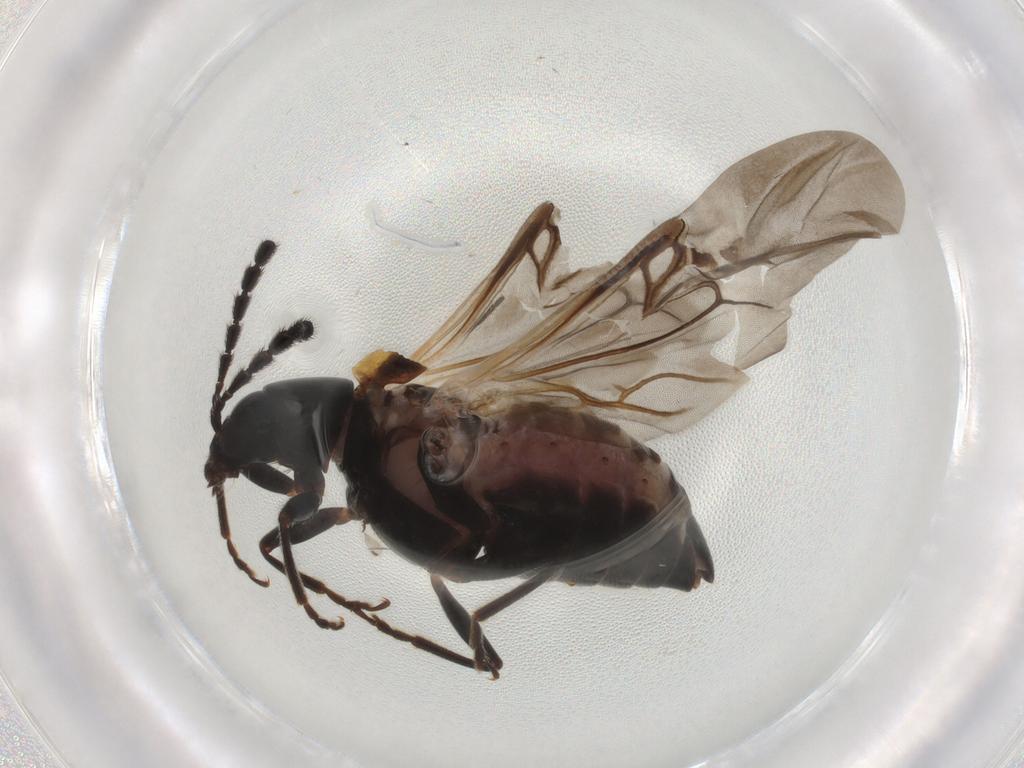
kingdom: Animalia
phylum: Arthropoda
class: Insecta
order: Coleoptera
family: Chrysomelidae
